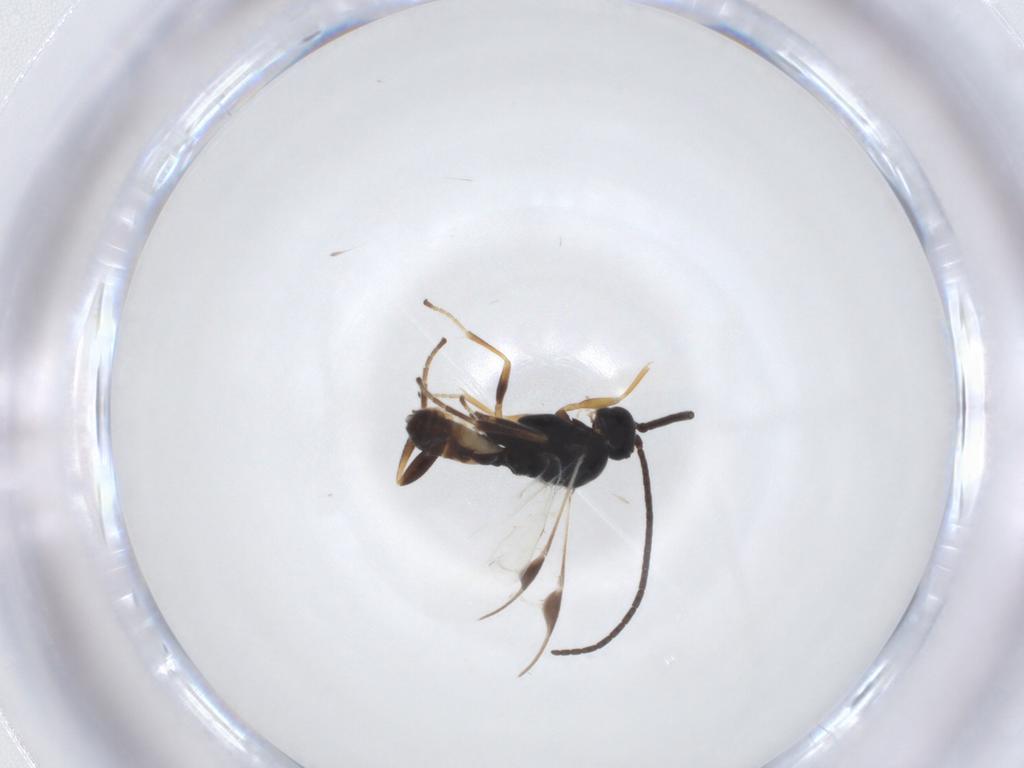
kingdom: Animalia
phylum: Arthropoda
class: Insecta
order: Hymenoptera
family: Braconidae
